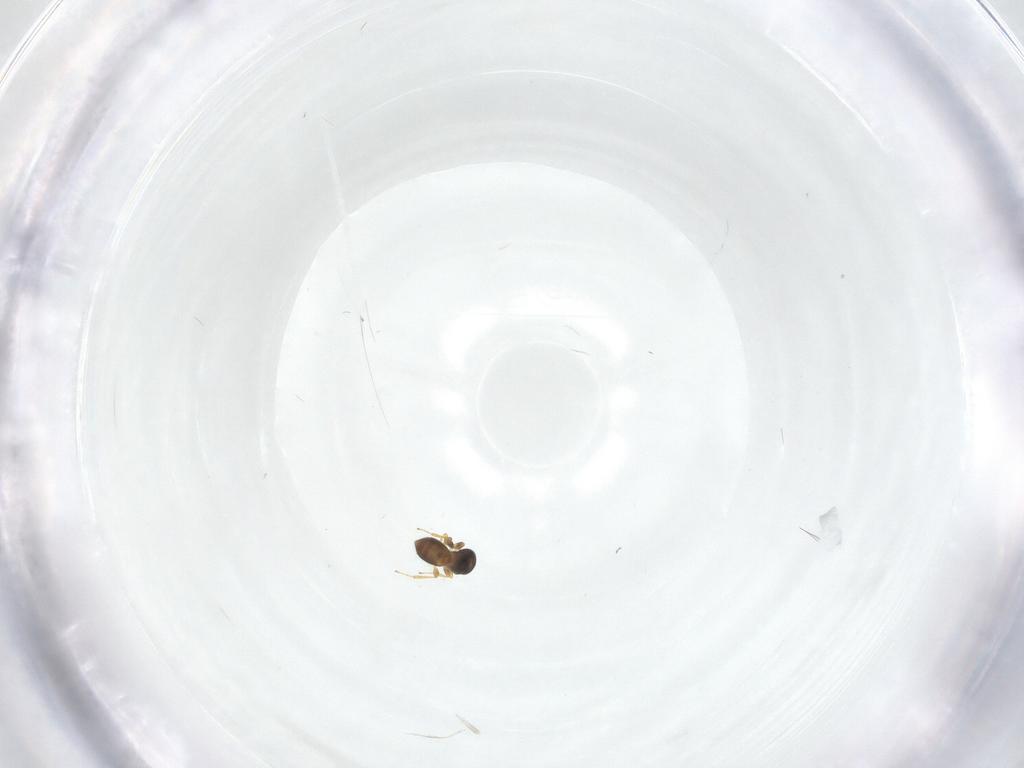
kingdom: Animalia
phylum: Arthropoda
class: Insecta
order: Hymenoptera
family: Platygastridae
